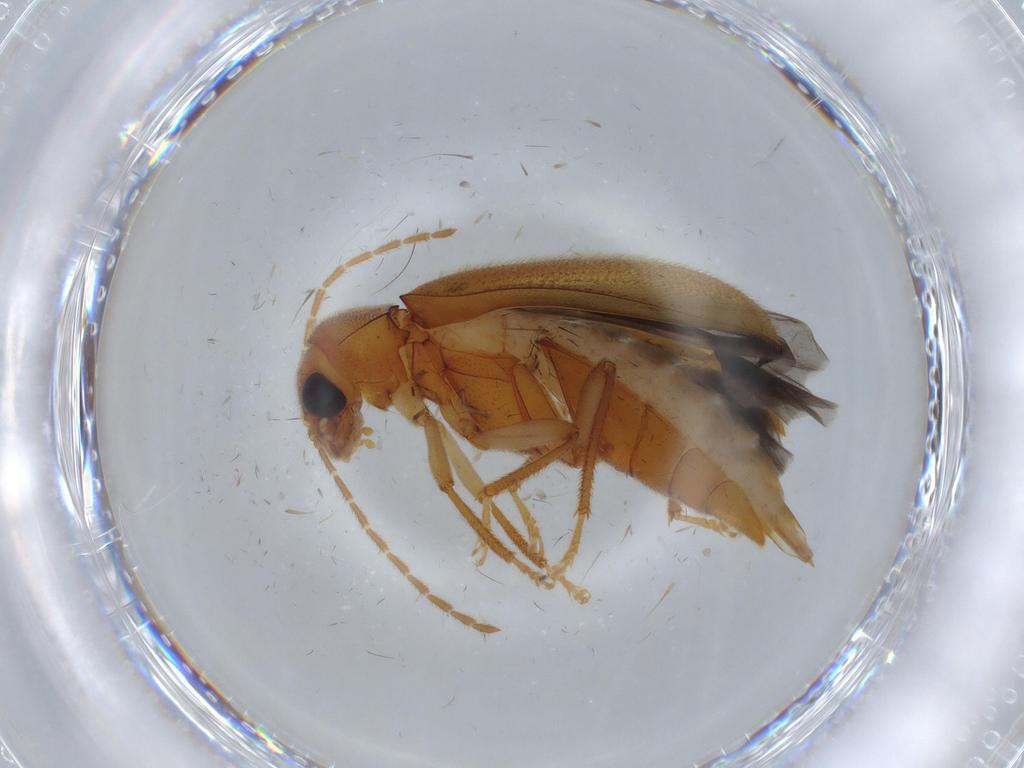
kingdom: Animalia
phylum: Arthropoda
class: Insecta
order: Coleoptera
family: Ptilodactylidae
